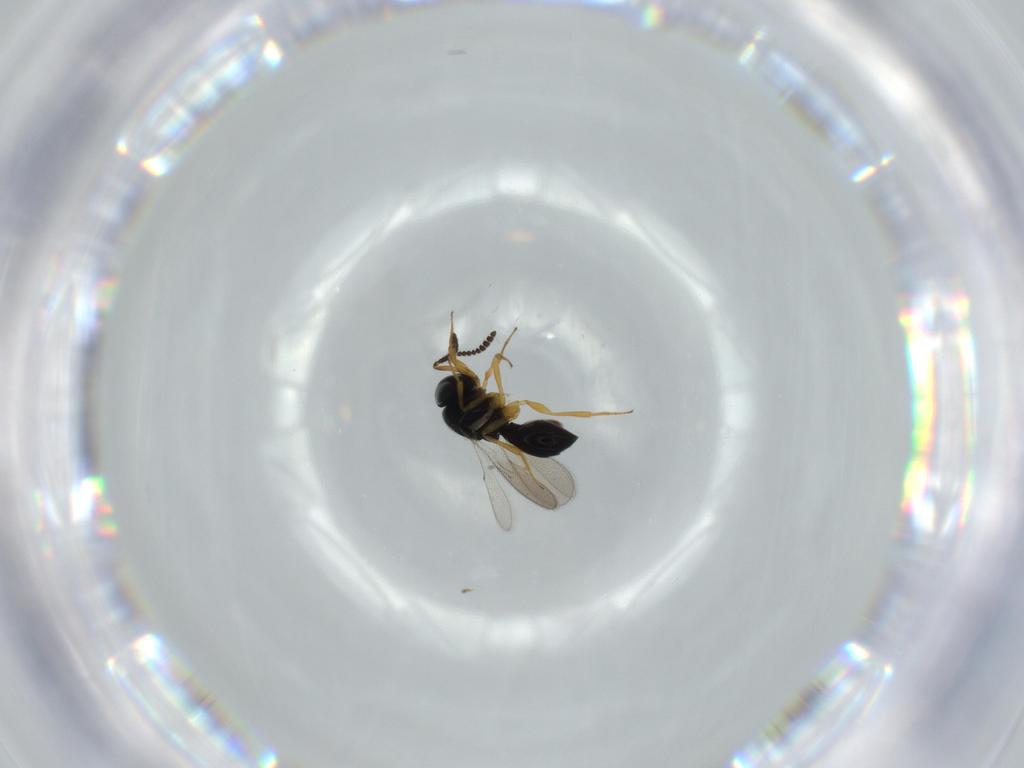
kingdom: Animalia
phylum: Arthropoda
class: Insecta
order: Hymenoptera
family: Scelionidae
